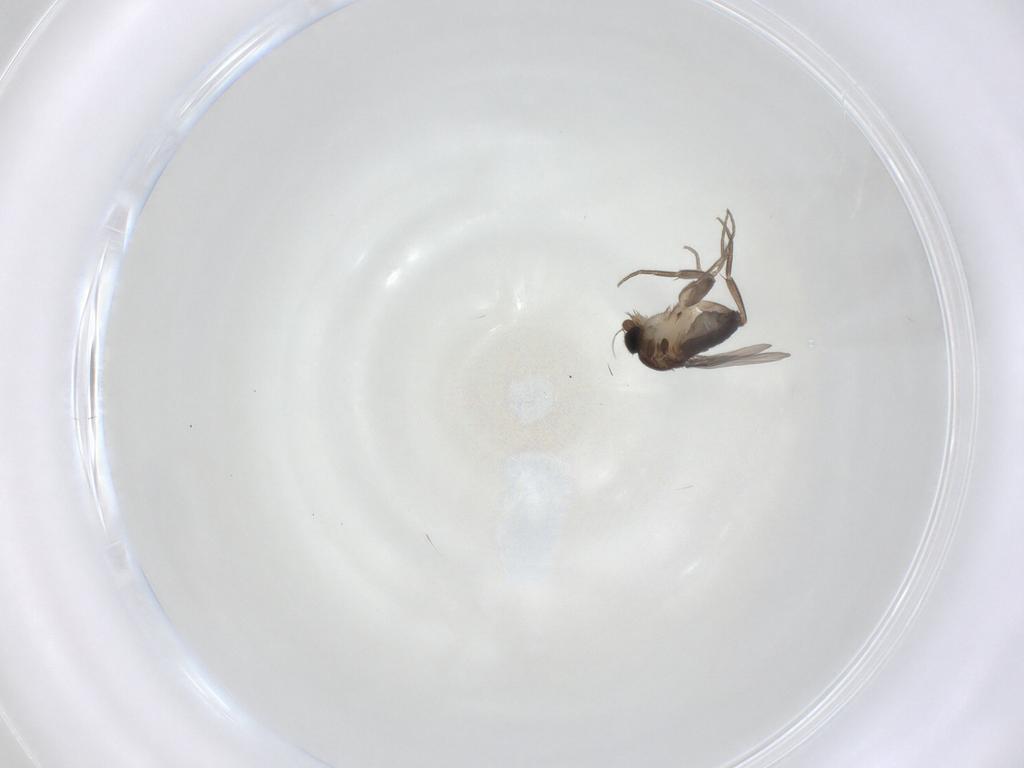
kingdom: Animalia
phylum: Arthropoda
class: Insecta
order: Diptera
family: Phoridae
